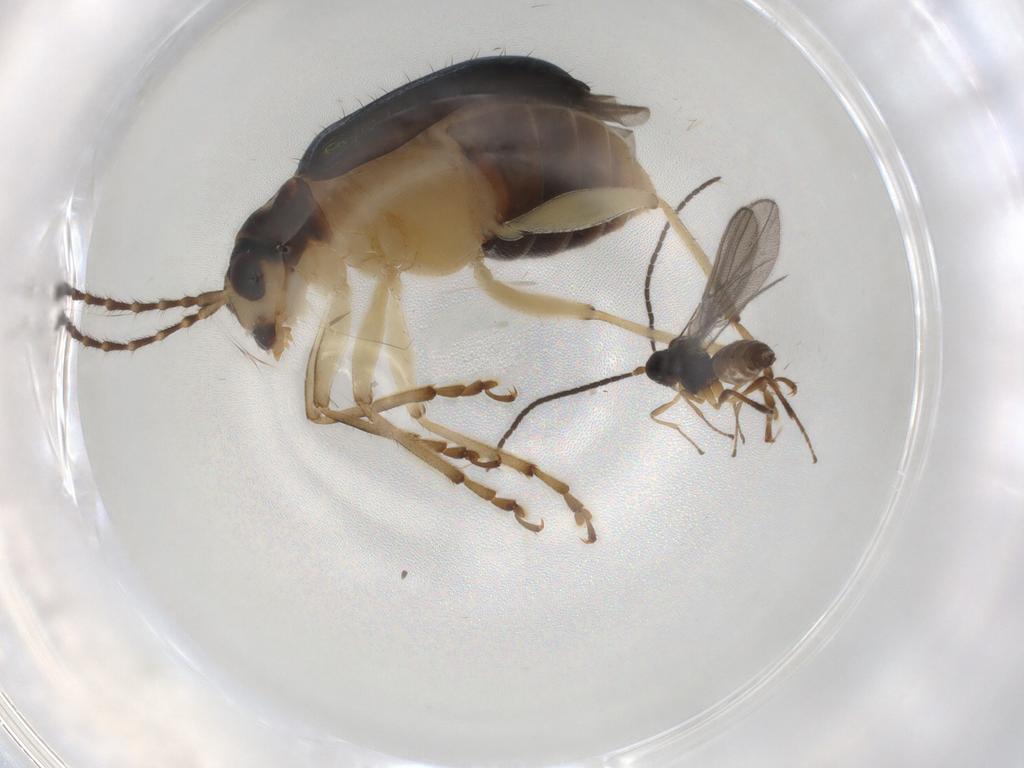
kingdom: Animalia
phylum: Arthropoda
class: Insecta
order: Coleoptera
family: Chrysomelidae
